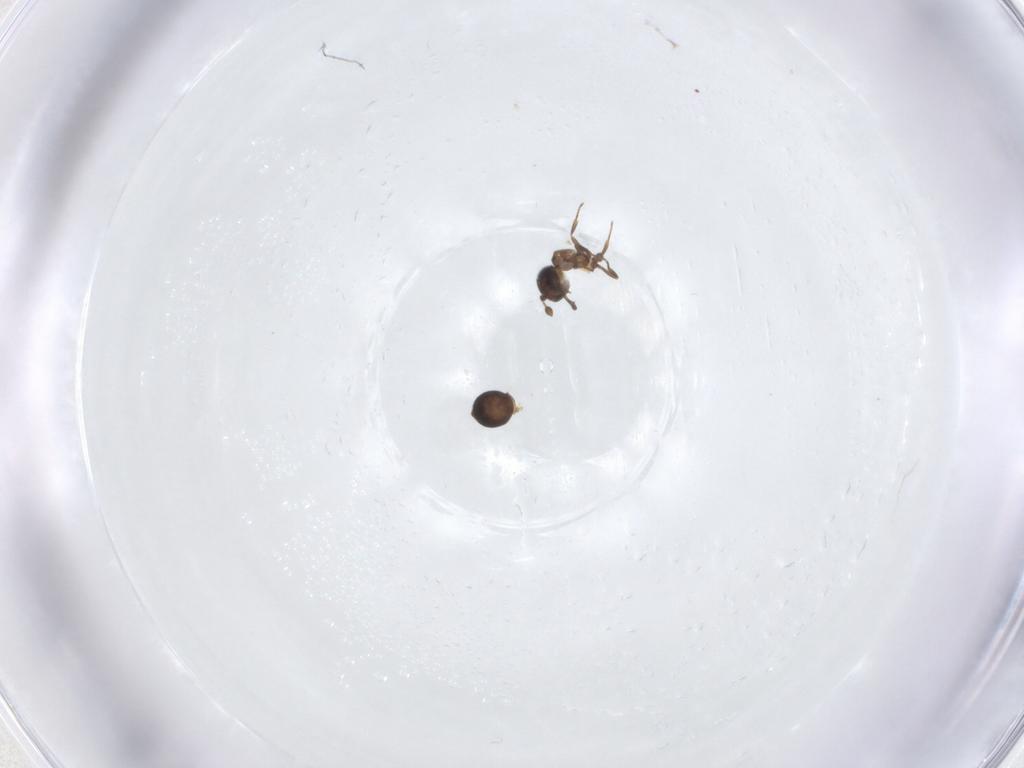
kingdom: Animalia
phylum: Arthropoda
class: Insecta
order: Hymenoptera
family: Scelionidae
